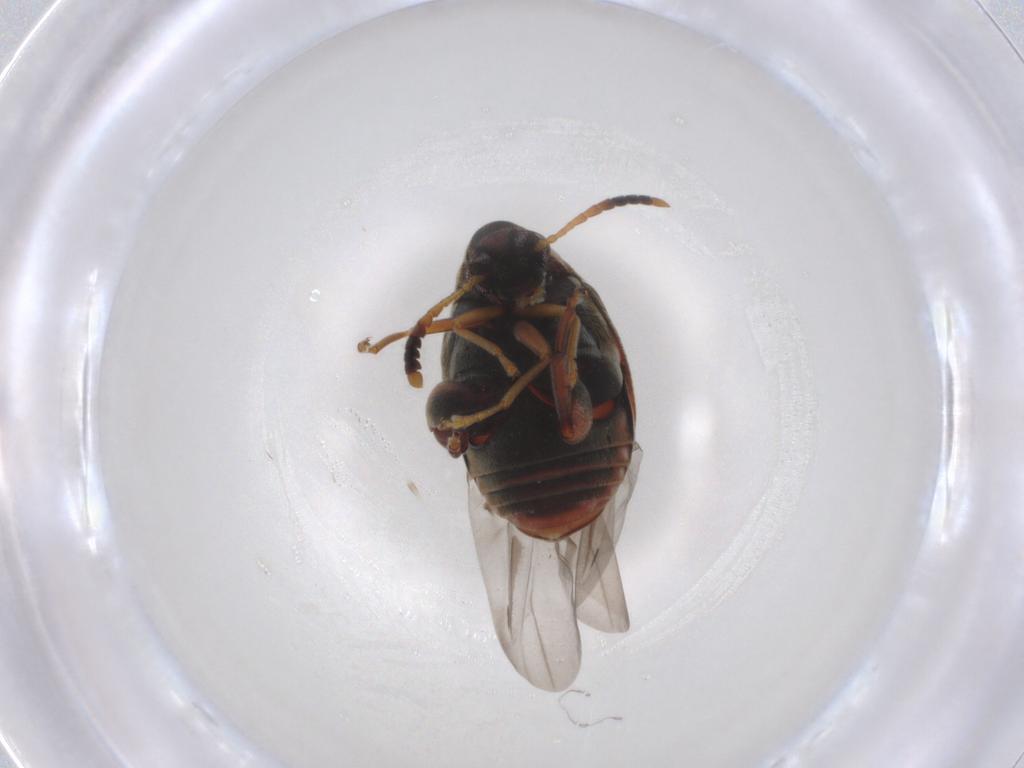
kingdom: Animalia
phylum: Arthropoda
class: Insecta
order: Coleoptera
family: Chrysomelidae
